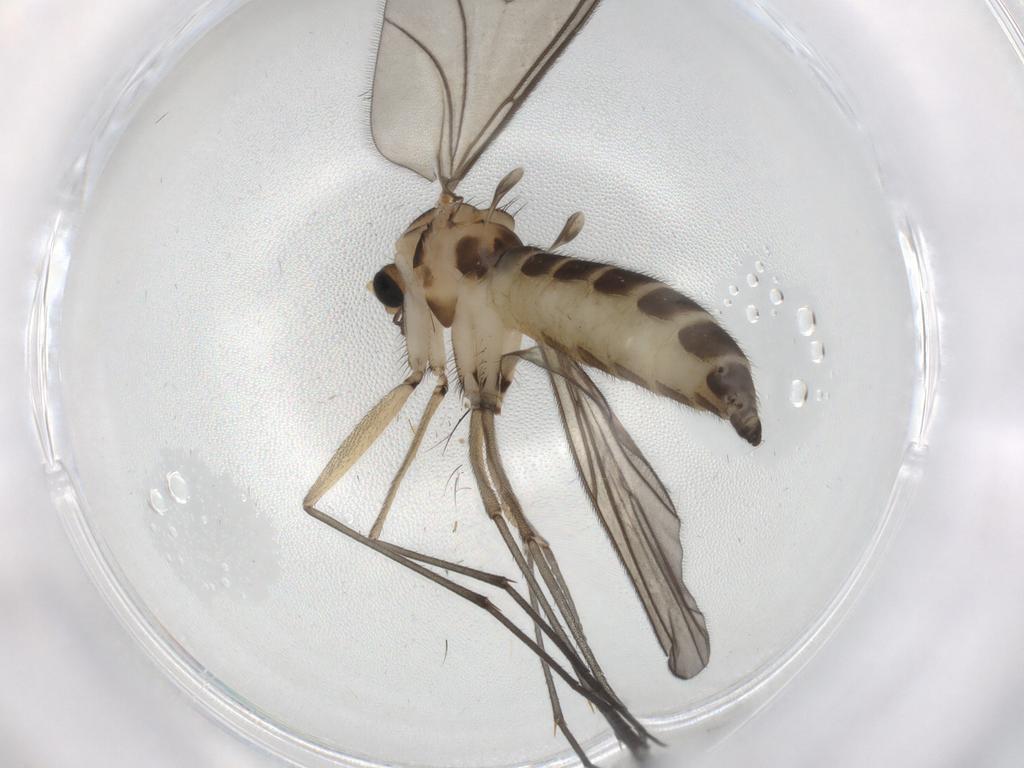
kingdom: Animalia
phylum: Arthropoda
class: Insecta
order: Diptera
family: Sciaridae
